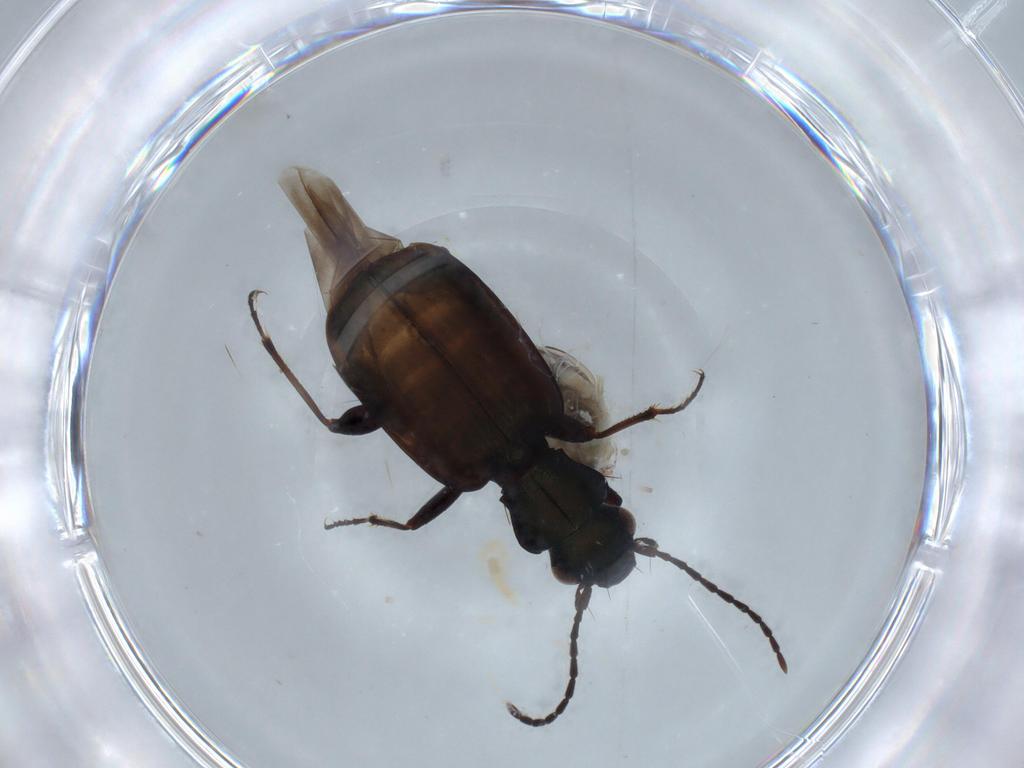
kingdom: Animalia
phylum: Arthropoda
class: Insecta
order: Coleoptera
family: Carabidae
